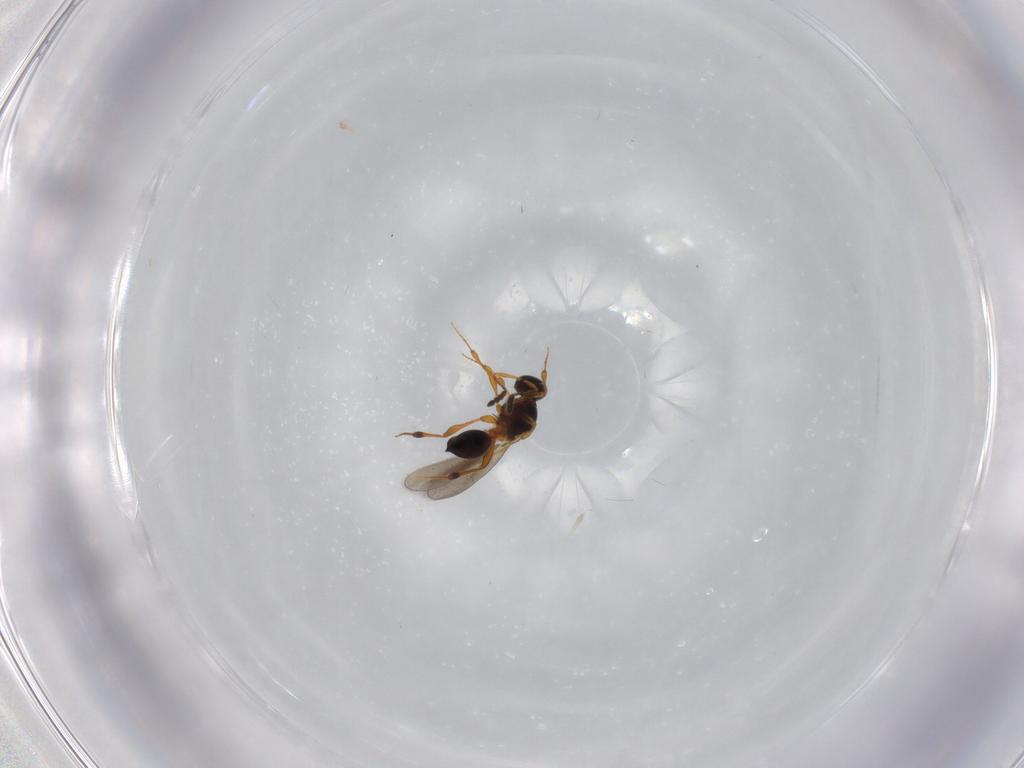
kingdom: Animalia
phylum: Arthropoda
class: Insecta
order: Hymenoptera
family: Platygastridae
